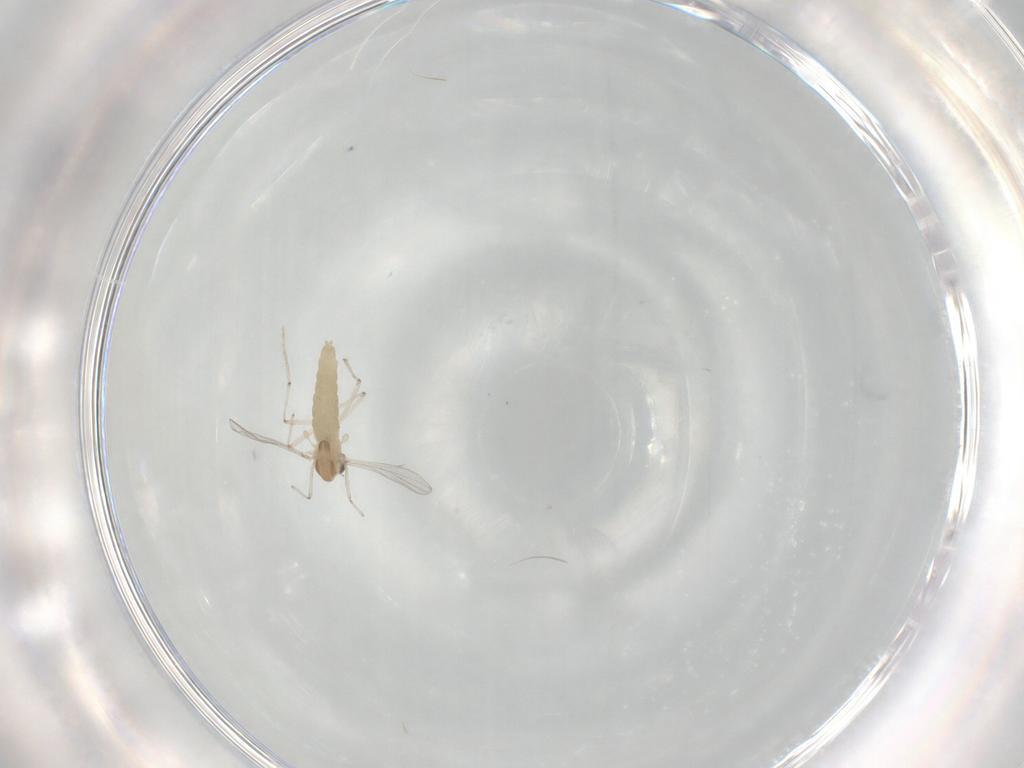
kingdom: Animalia
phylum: Arthropoda
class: Insecta
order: Diptera
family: Chironomidae
